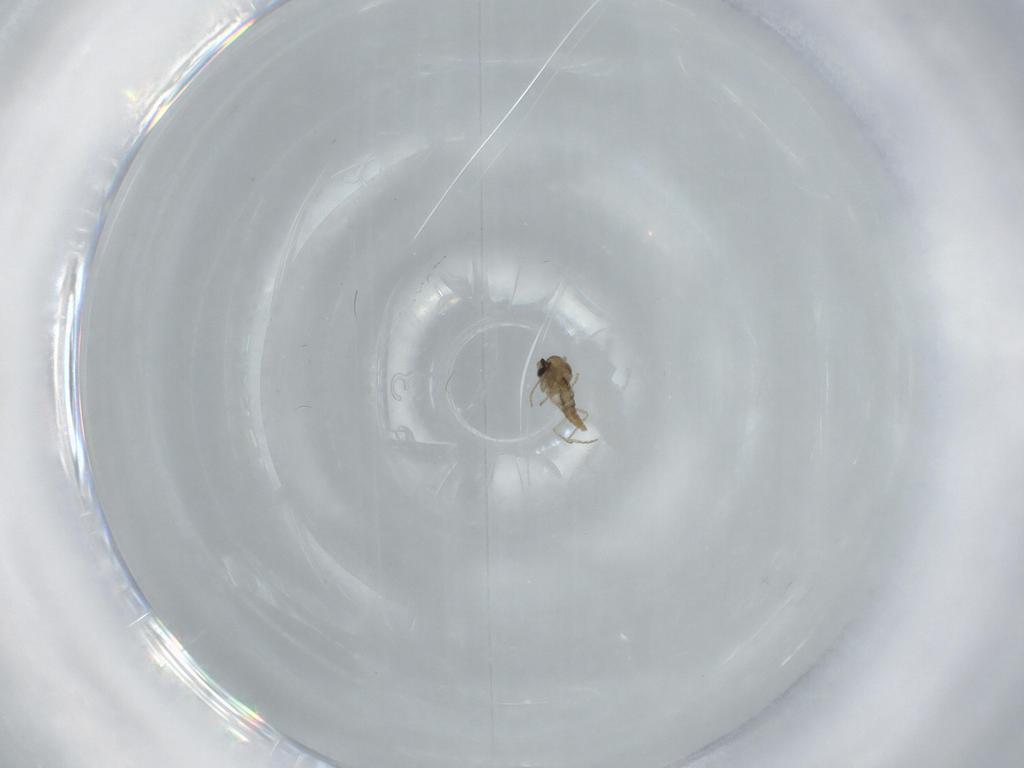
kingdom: Animalia
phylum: Arthropoda
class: Insecta
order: Diptera
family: Cecidomyiidae
